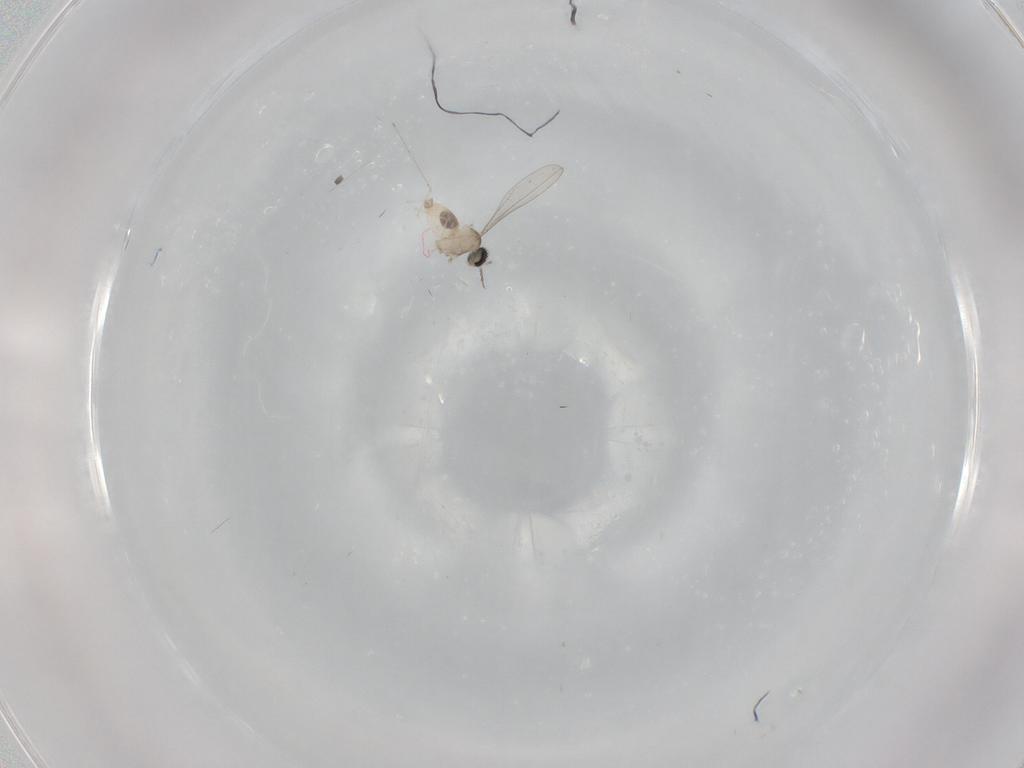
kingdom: Animalia
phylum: Arthropoda
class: Insecta
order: Diptera
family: Cecidomyiidae
